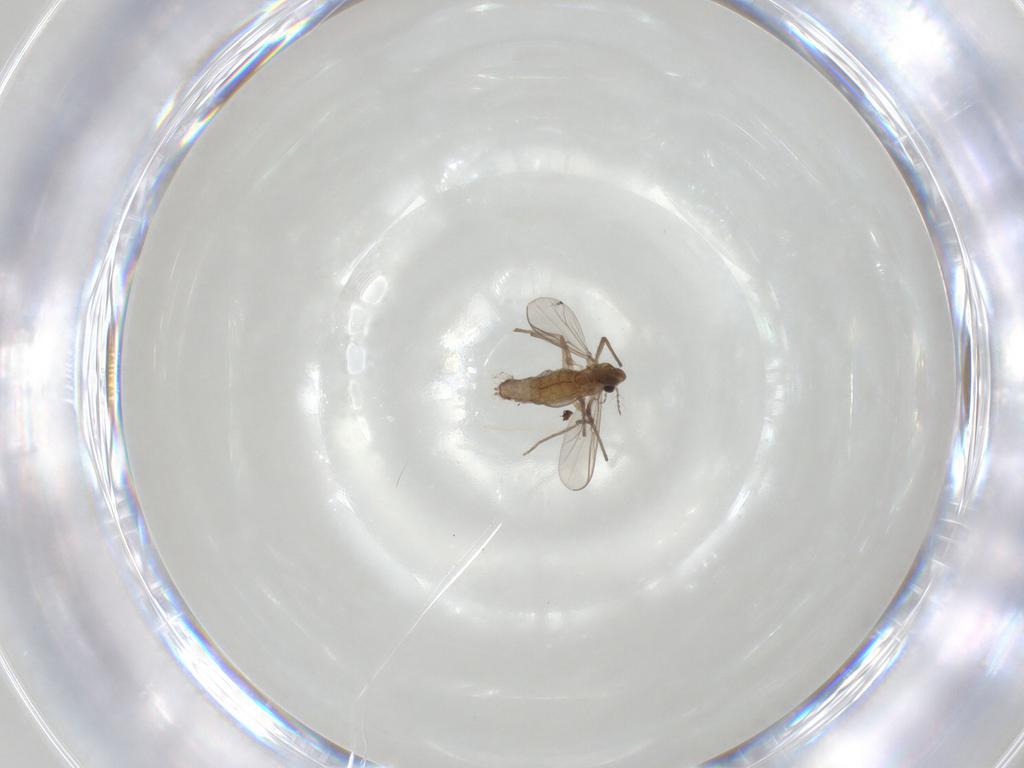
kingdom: Animalia
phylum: Arthropoda
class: Insecta
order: Diptera
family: Chironomidae
